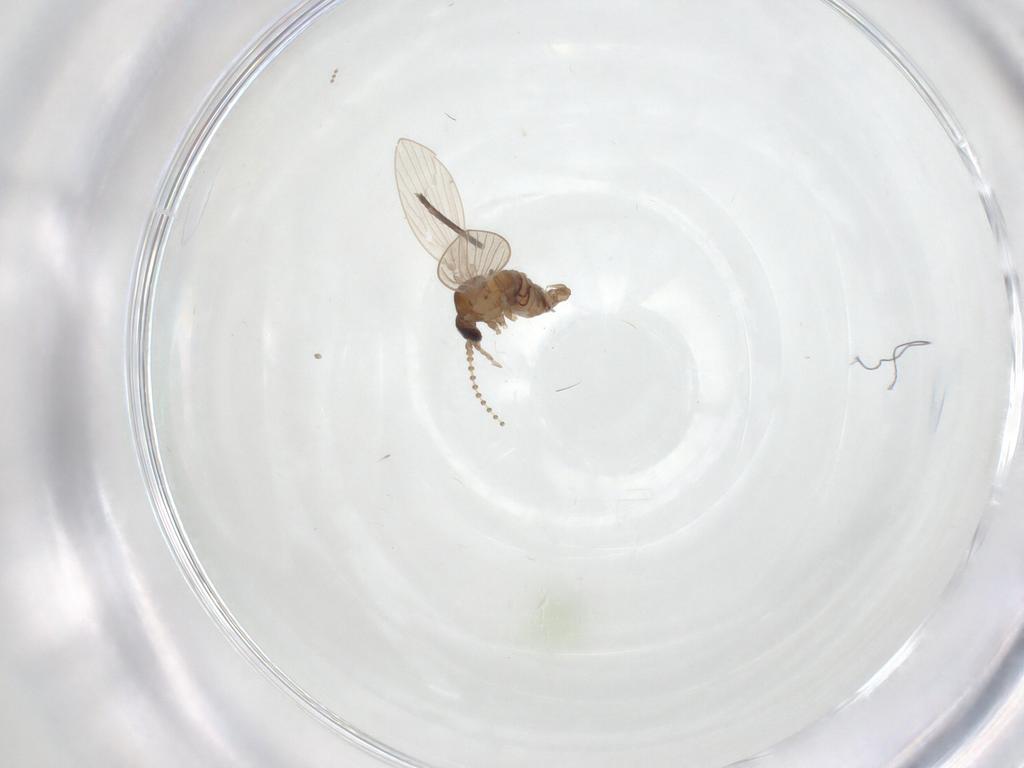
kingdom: Animalia
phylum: Arthropoda
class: Insecta
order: Diptera
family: Psychodidae
